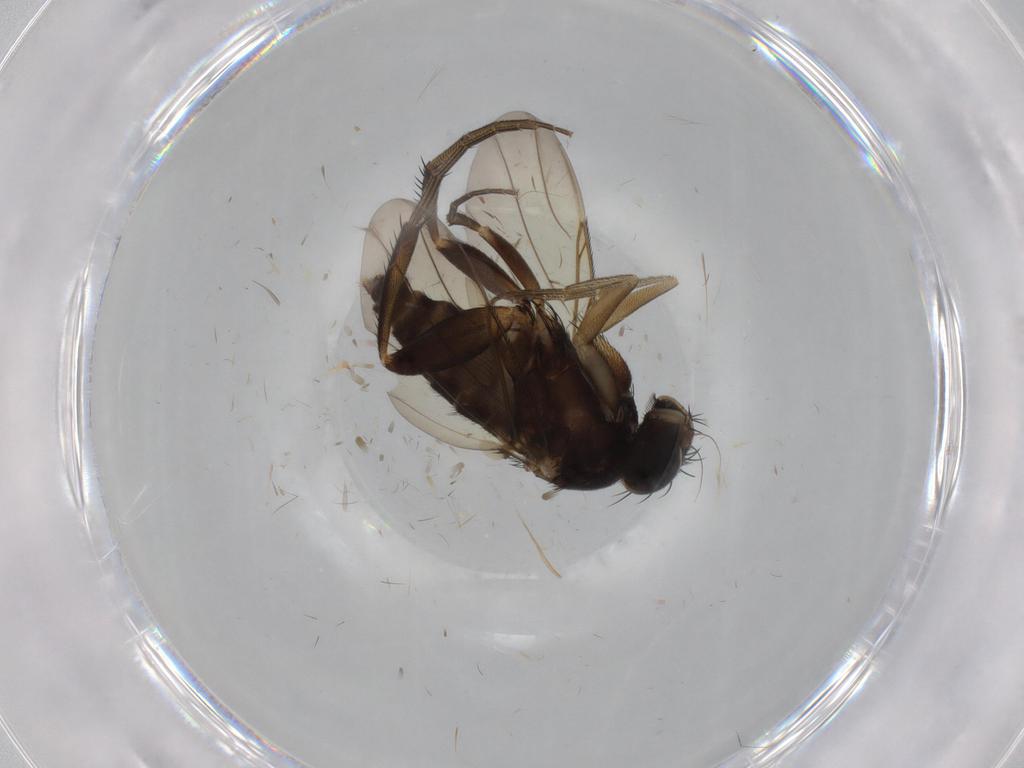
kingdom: Animalia
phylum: Arthropoda
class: Insecta
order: Diptera
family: Phoridae
